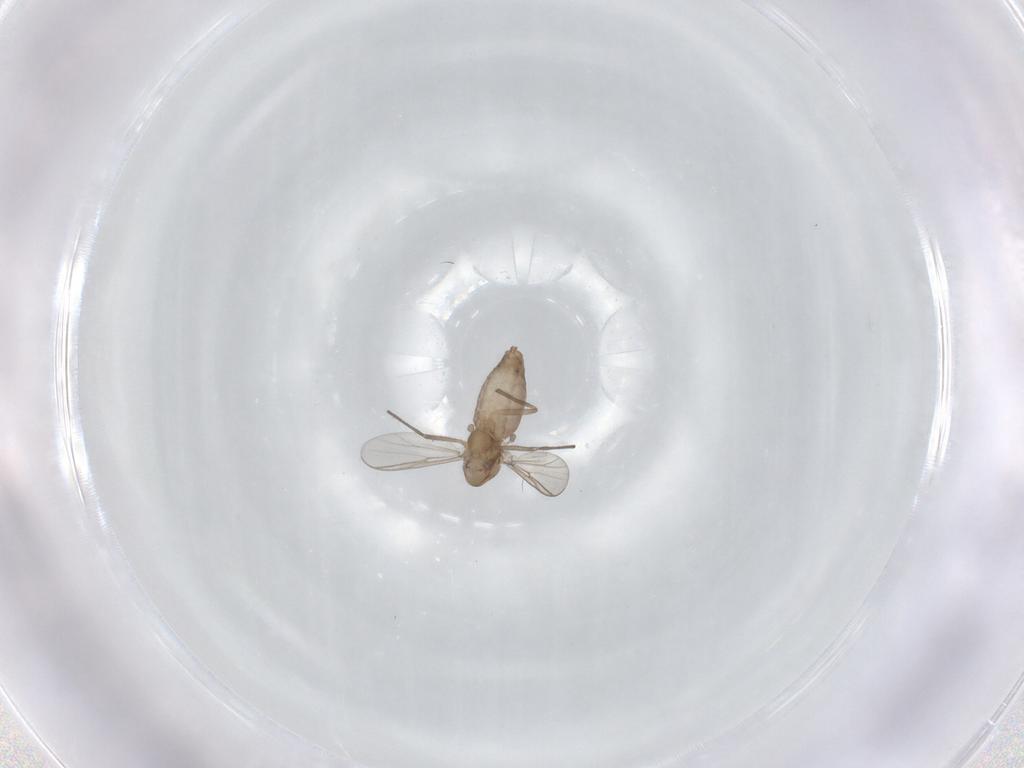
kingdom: Animalia
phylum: Arthropoda
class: Insecta
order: Diptera
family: Chironomidae
